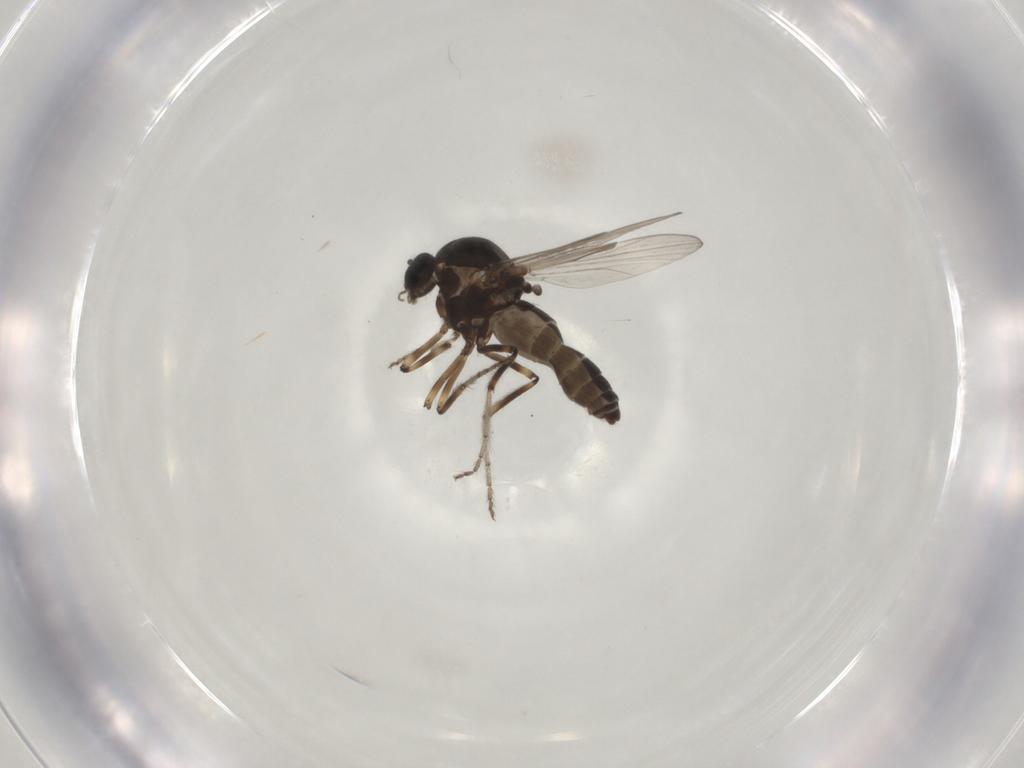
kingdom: Animalia
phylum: Arthropoda
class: Insecta
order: Diptera
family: Ceratopogonidae
